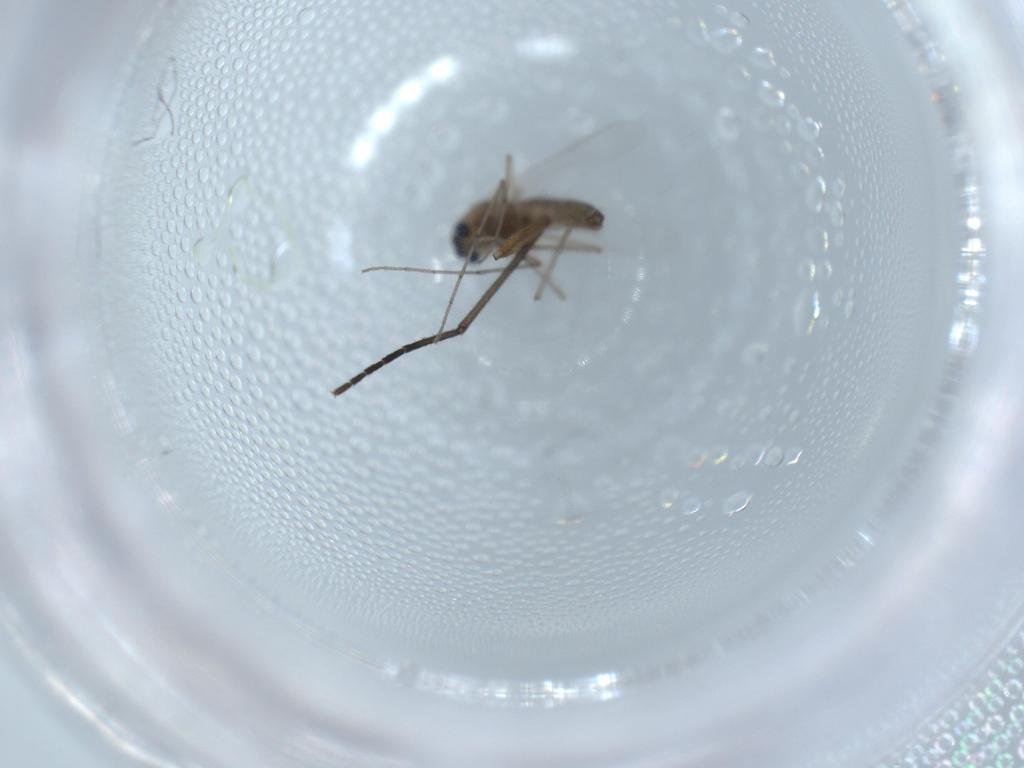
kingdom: Animalia
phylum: Arthropoda
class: Insecta
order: Diptera
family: Chironomidae
